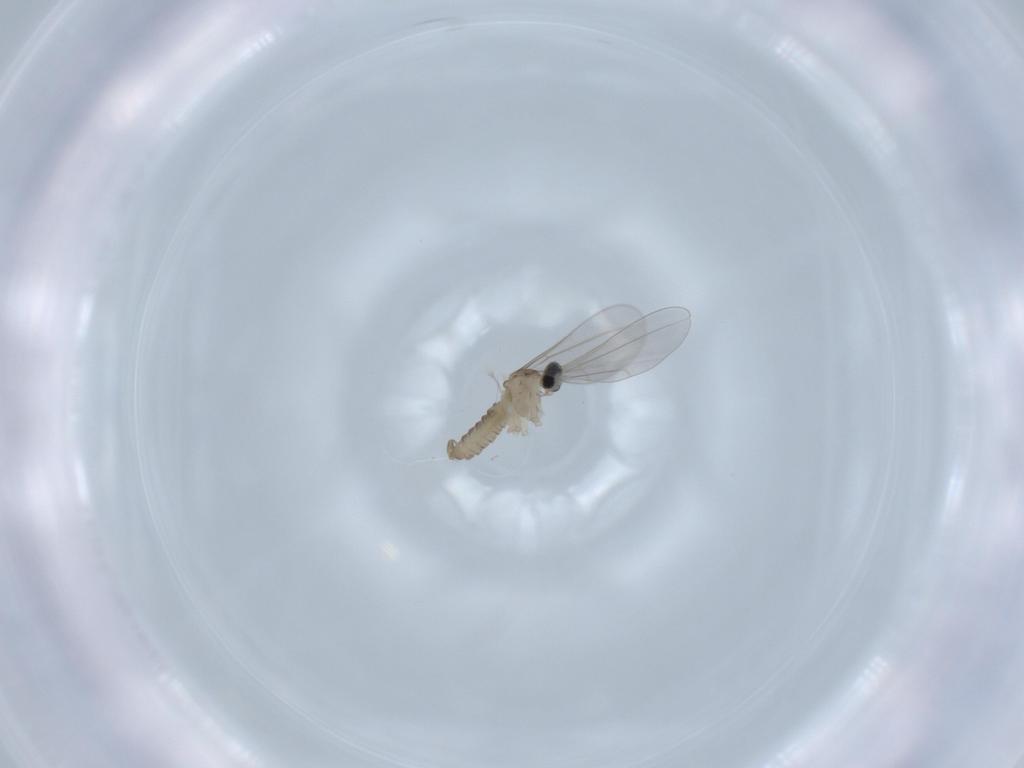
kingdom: Animalia
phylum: Arthropoda
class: Insecta
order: Diptera
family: Cecidomyiidae
